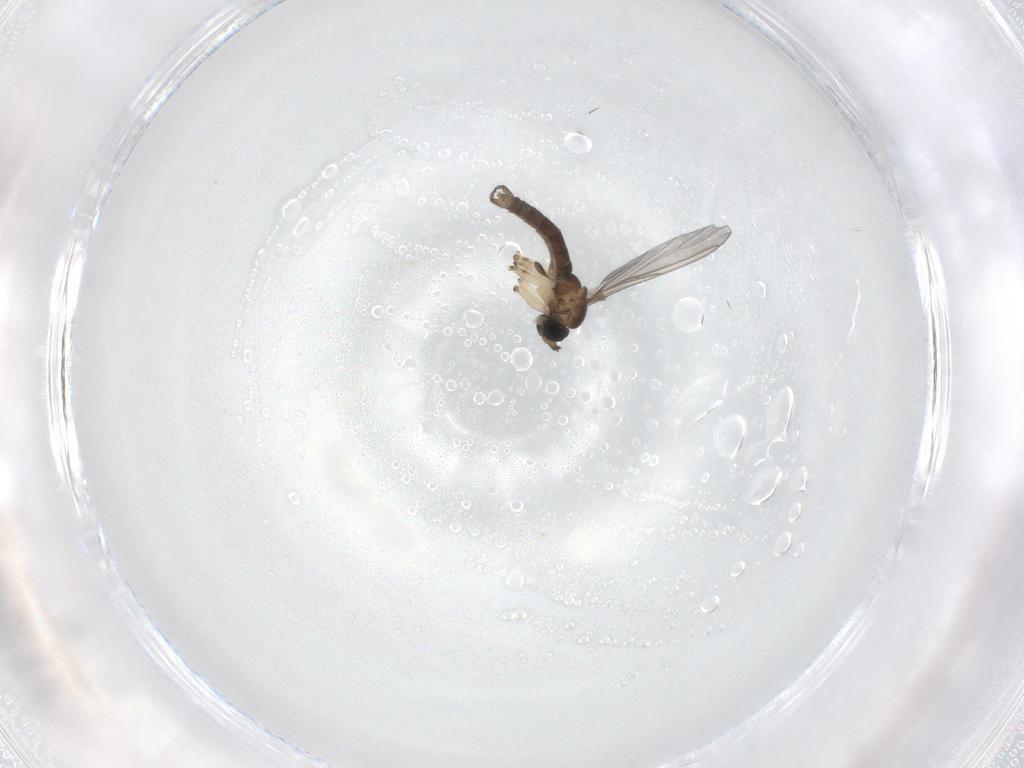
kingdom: Animalia
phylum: Arthropoda
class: Insecta
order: Diptera
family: Sciaridae
